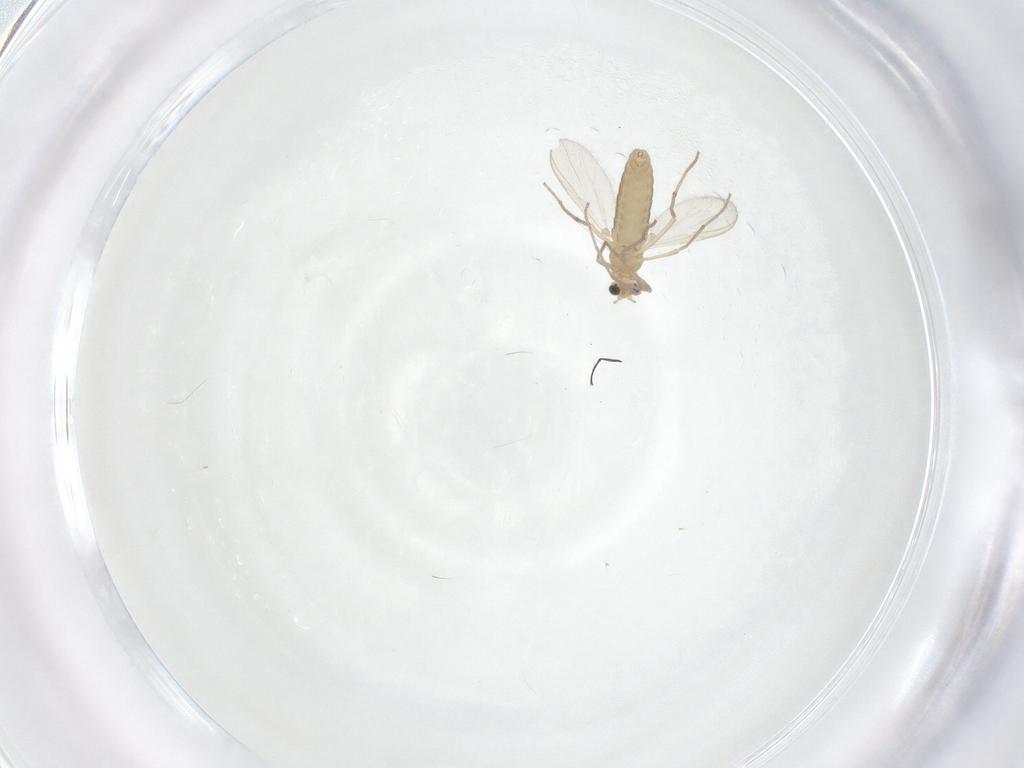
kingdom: Animalia
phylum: Arthropoda
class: Insecta
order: Diptera
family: Chironomidae
